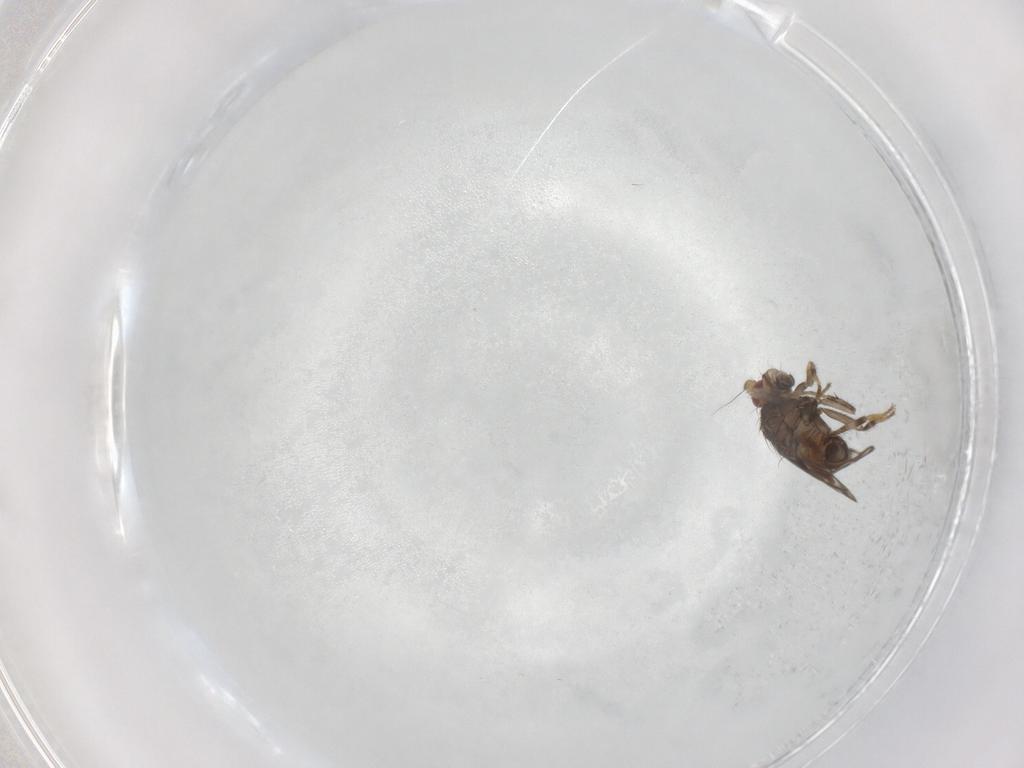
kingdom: Animalia
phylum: Arthropoda
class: Insecta
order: Diptera
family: Sphaeroceridae
